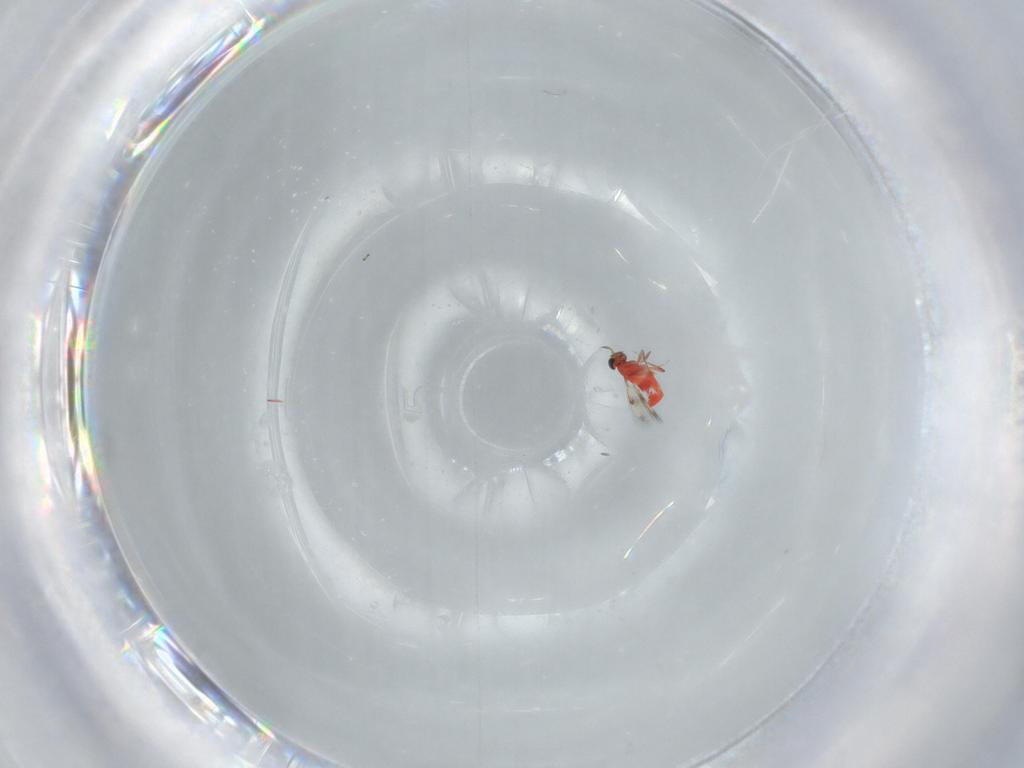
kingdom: Animalia
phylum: Arthropoda
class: Insecta
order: Hymenoptera
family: Trichogrammatidae
